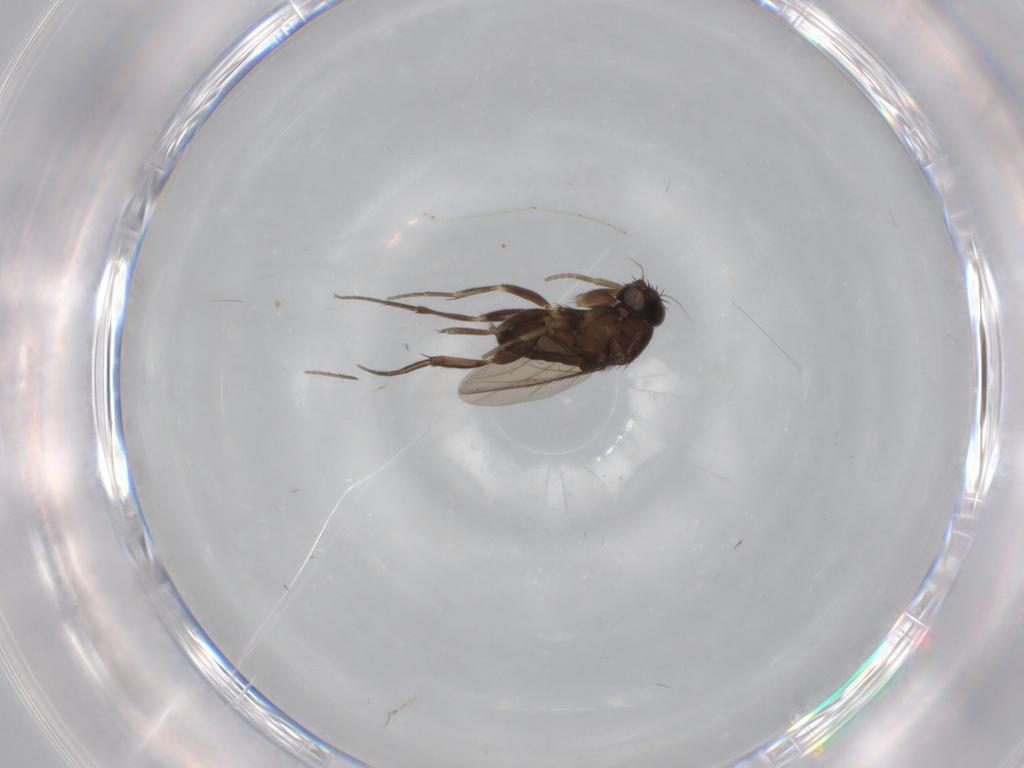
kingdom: Animalia
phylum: Arthropoda
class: Insecta
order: Diptera
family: Phoridae
